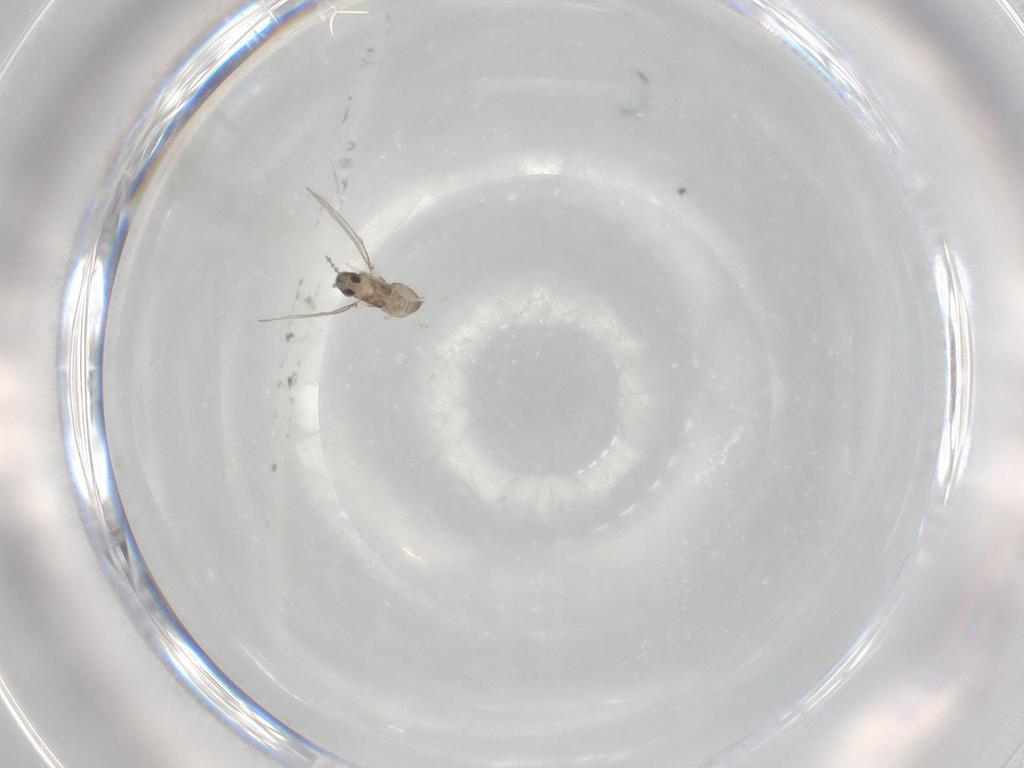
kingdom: Animalia
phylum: Arthropoda
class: Insecta
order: Diptera
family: Cecidomyiidae
